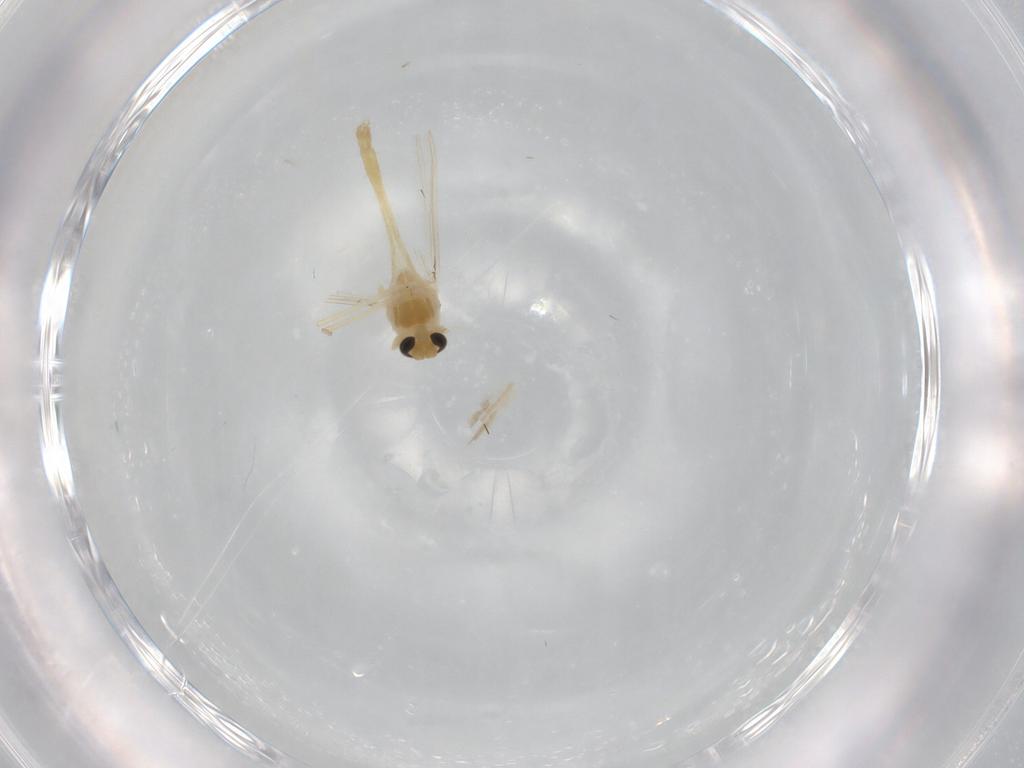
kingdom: Animalia
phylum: Arthropoda
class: Insecta
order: Diptera
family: Chironomidae
